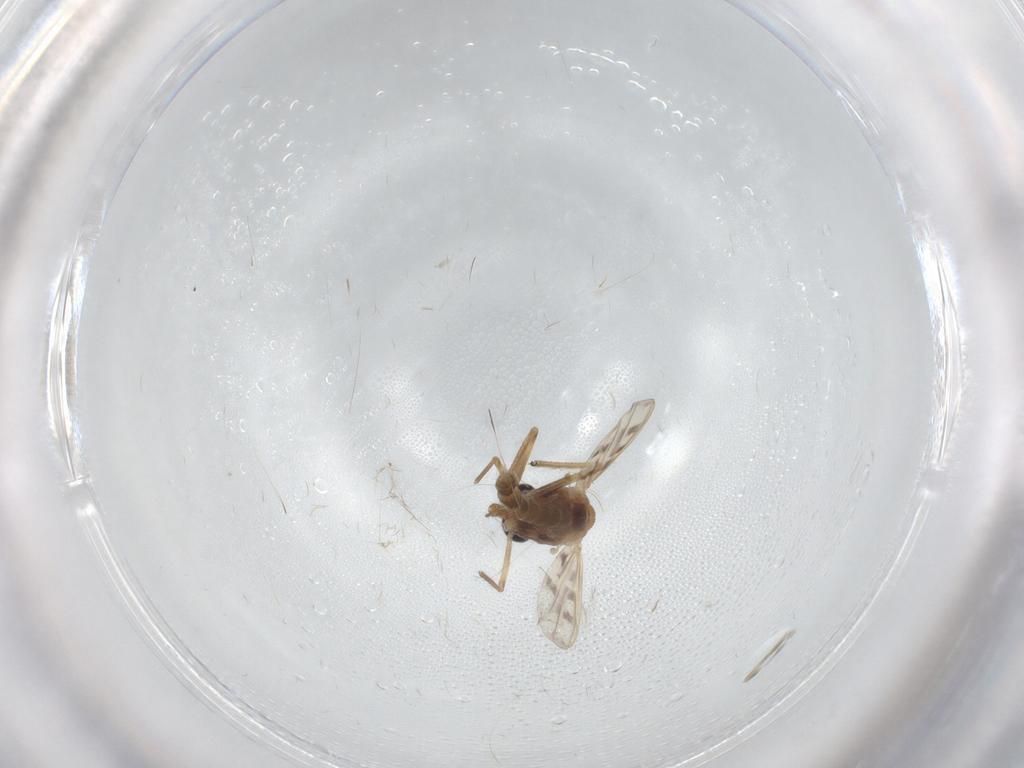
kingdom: Animalia
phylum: Arthropoda
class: Insecta
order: Diptera
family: Chironomidae
